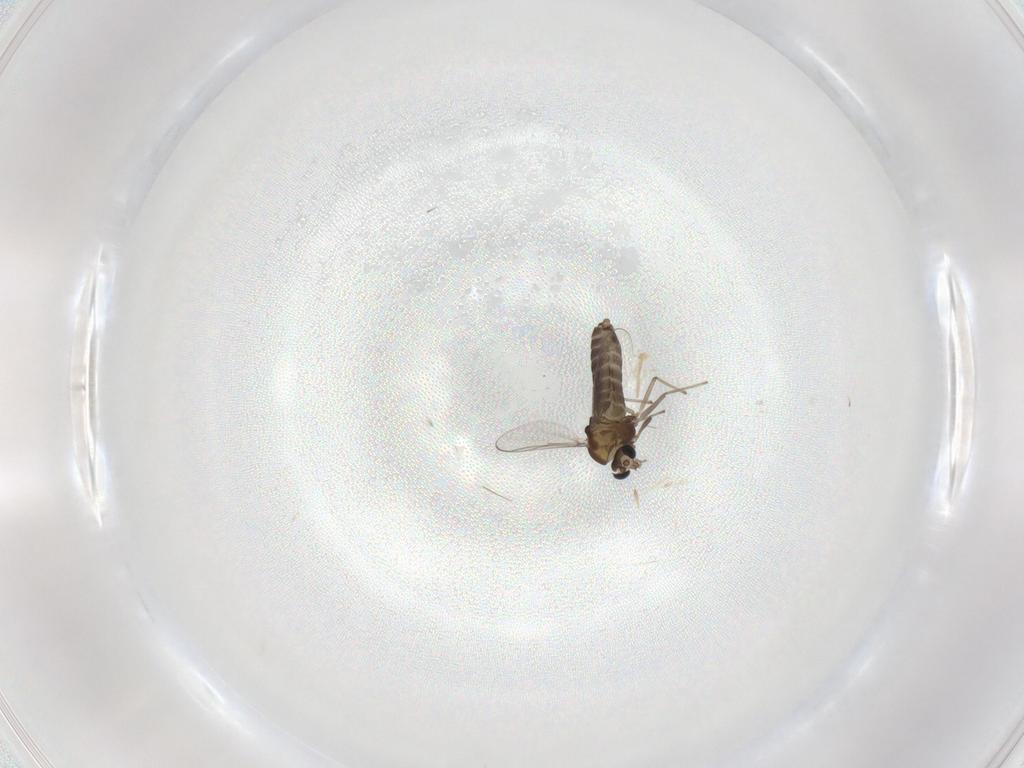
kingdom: Animalia
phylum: Arthropoda
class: Insecta
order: Diptera
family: Chironomidae
